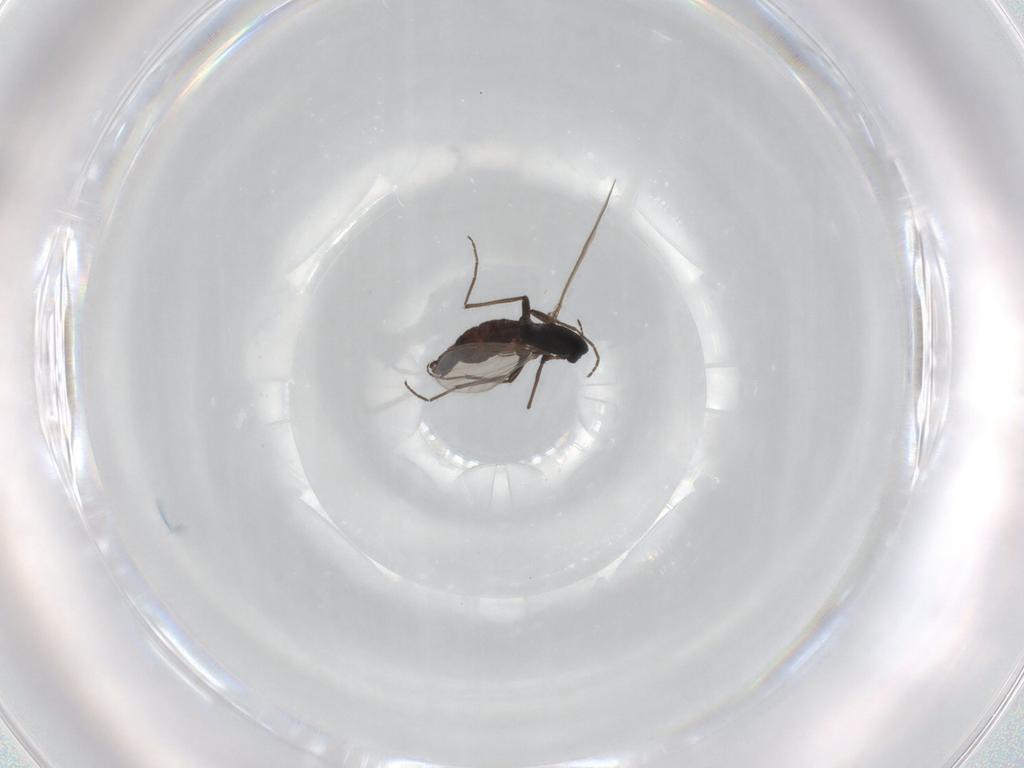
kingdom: Animalia
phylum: Arthropoda
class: Insecta
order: Diptera
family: Chironomidae
